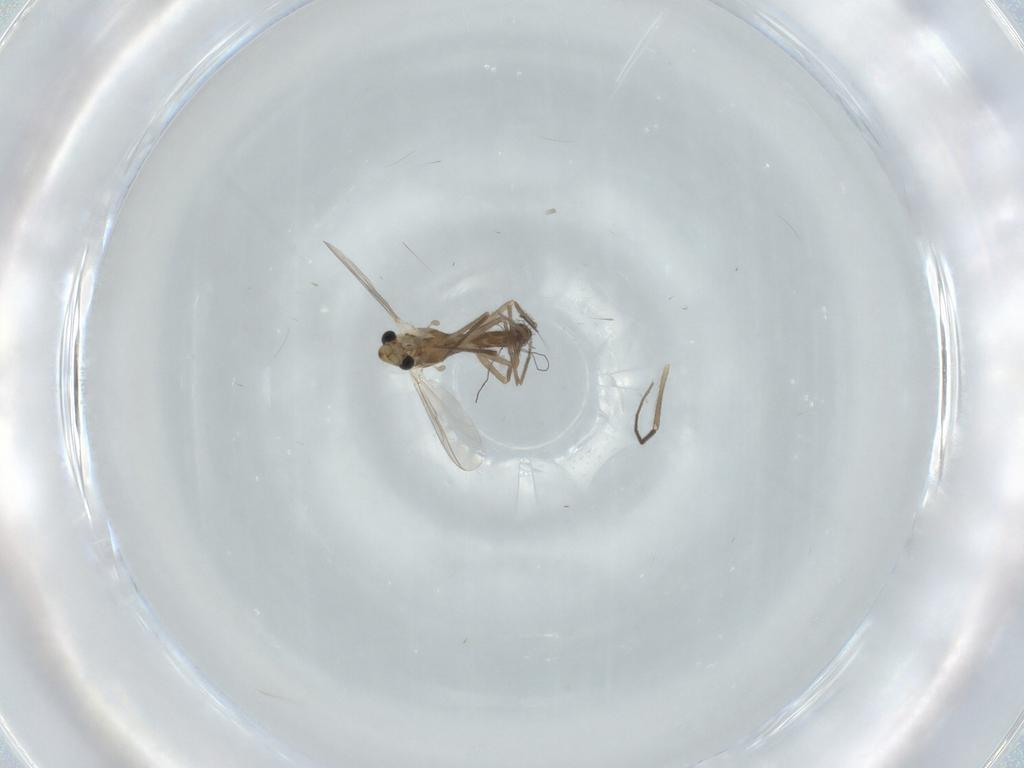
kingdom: Animalia
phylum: Arthropoda
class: Insecta
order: Diptera
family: Chironomidae
